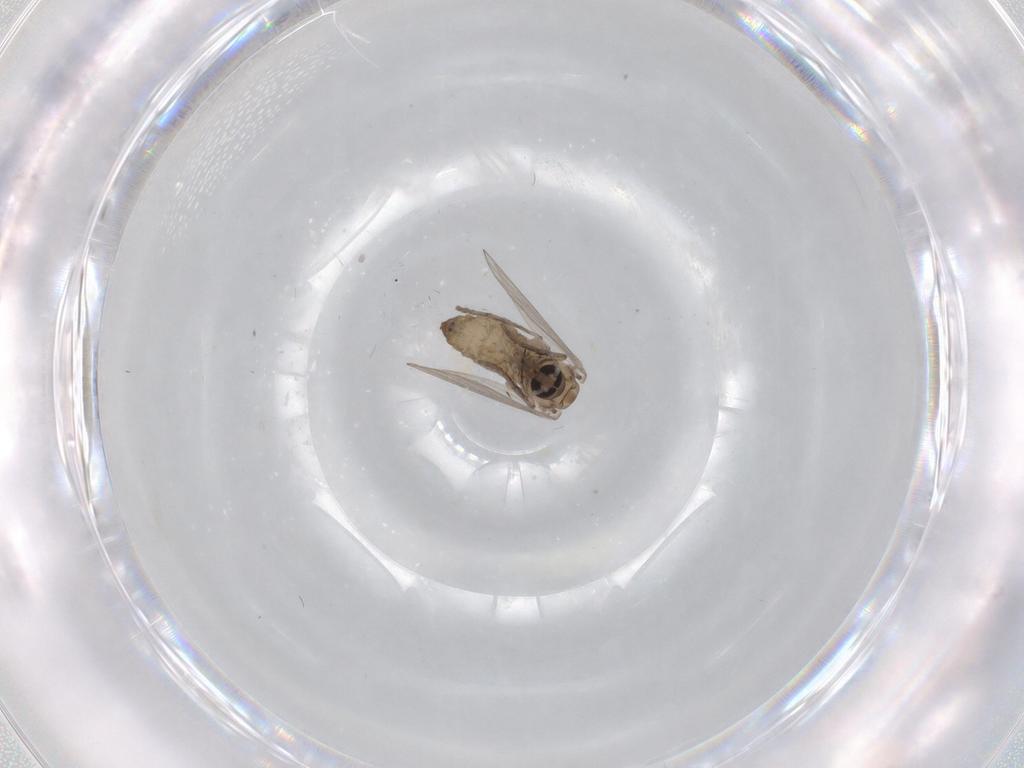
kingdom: Animalia
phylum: Arthropoda
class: Insecta
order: Diptera
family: Psychodidae
